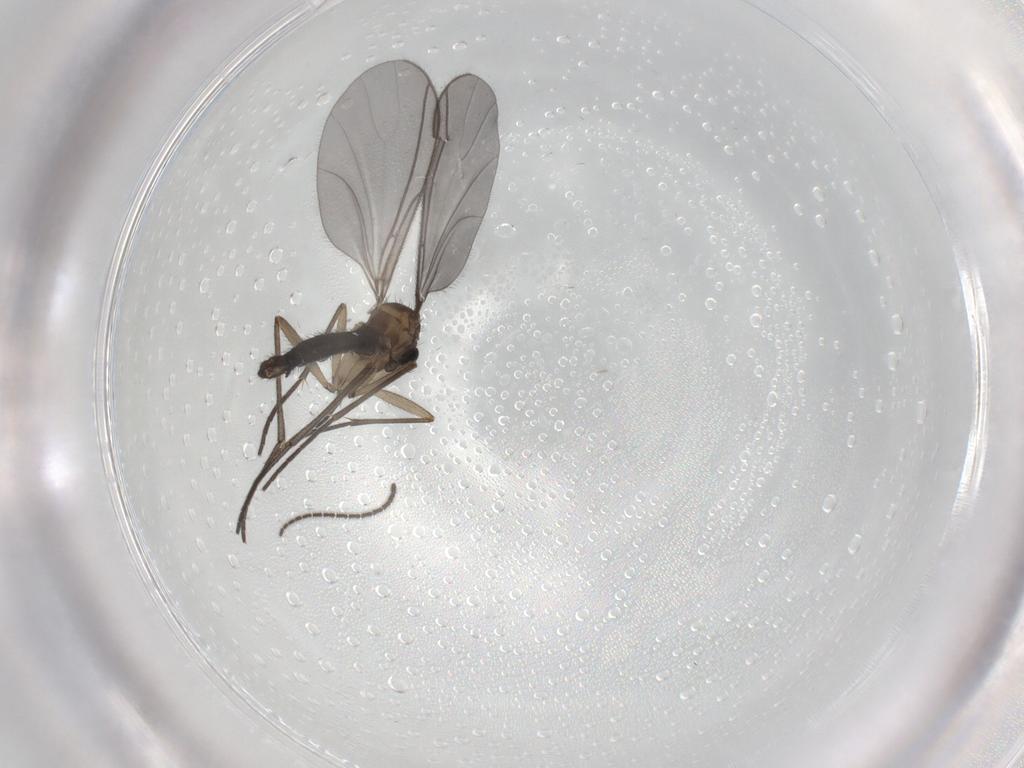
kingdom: Animalia
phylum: Arthropoda
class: Insecta
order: Diptera
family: Sciaridae
